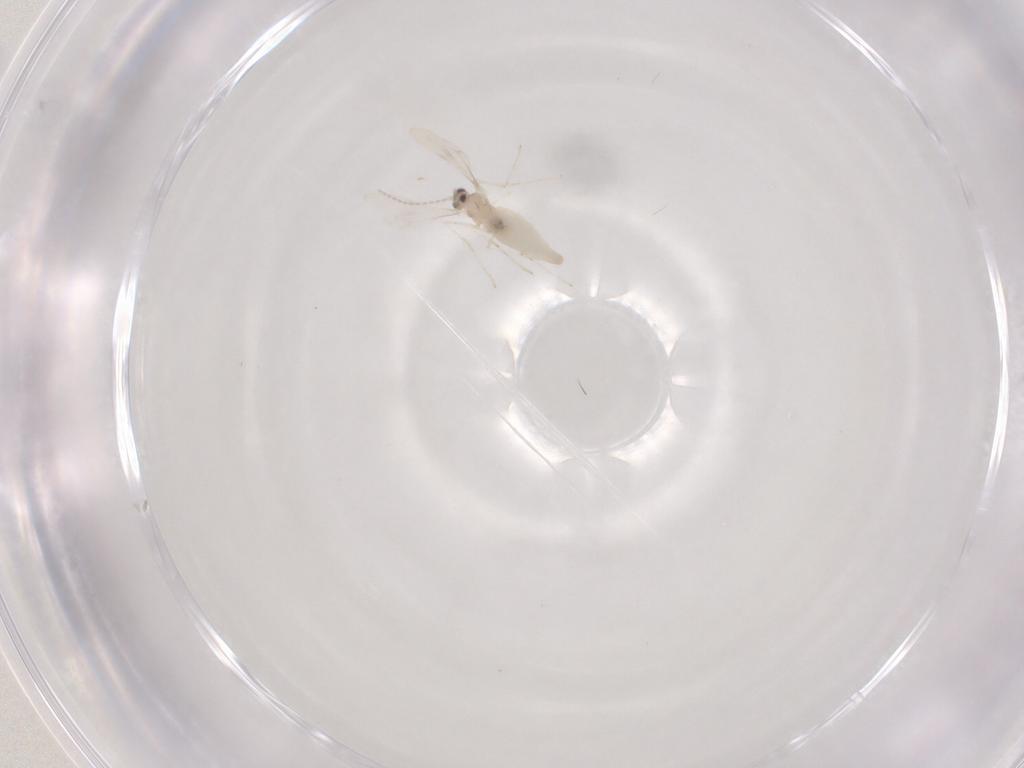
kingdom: Animalia
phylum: Arthropoda
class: Insecta
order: Diptera
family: Cecidomyiidae
